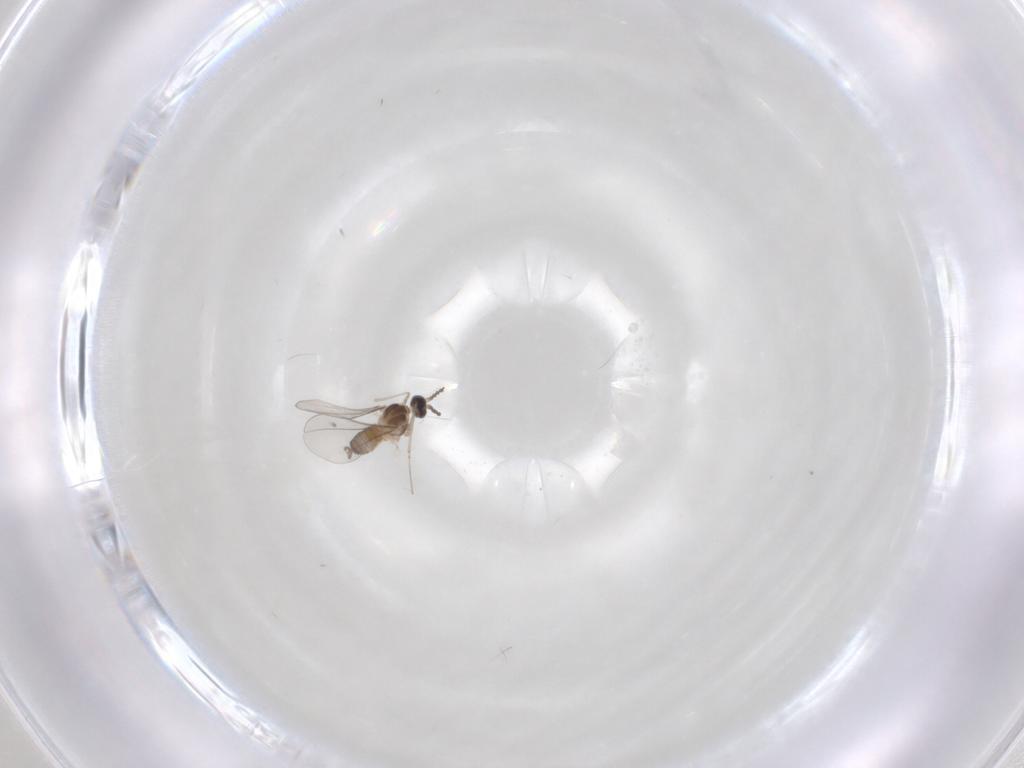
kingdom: Animalia
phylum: Arthropoda
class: Insecta
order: Diptera
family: Cecidomyiidae
